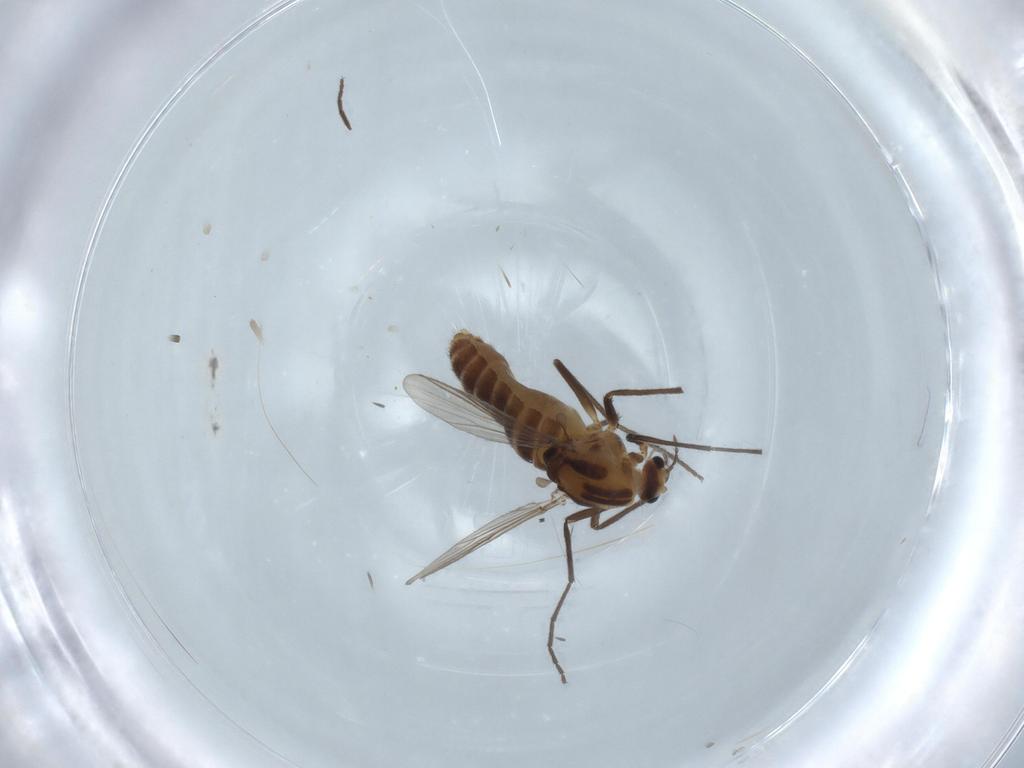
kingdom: Animalia
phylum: Arthropoda
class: Insecta
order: Diptera
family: Chironomidae
